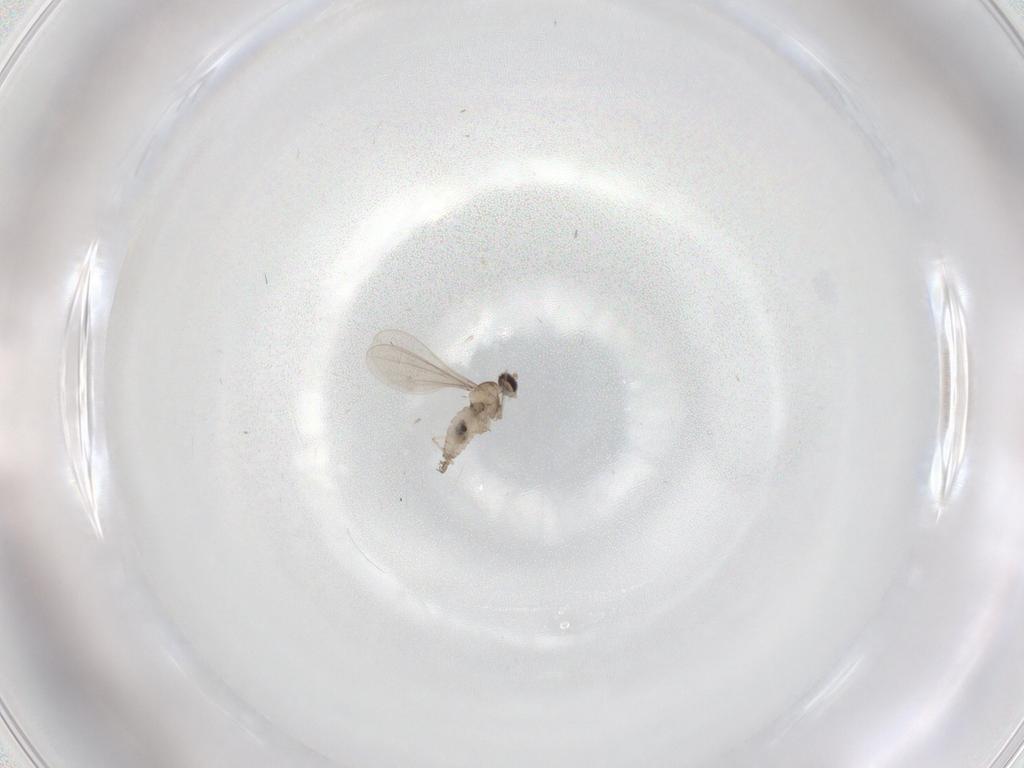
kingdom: Animalia
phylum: Arthropoda
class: Insecta
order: Diptera
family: Cecidomyiidae
